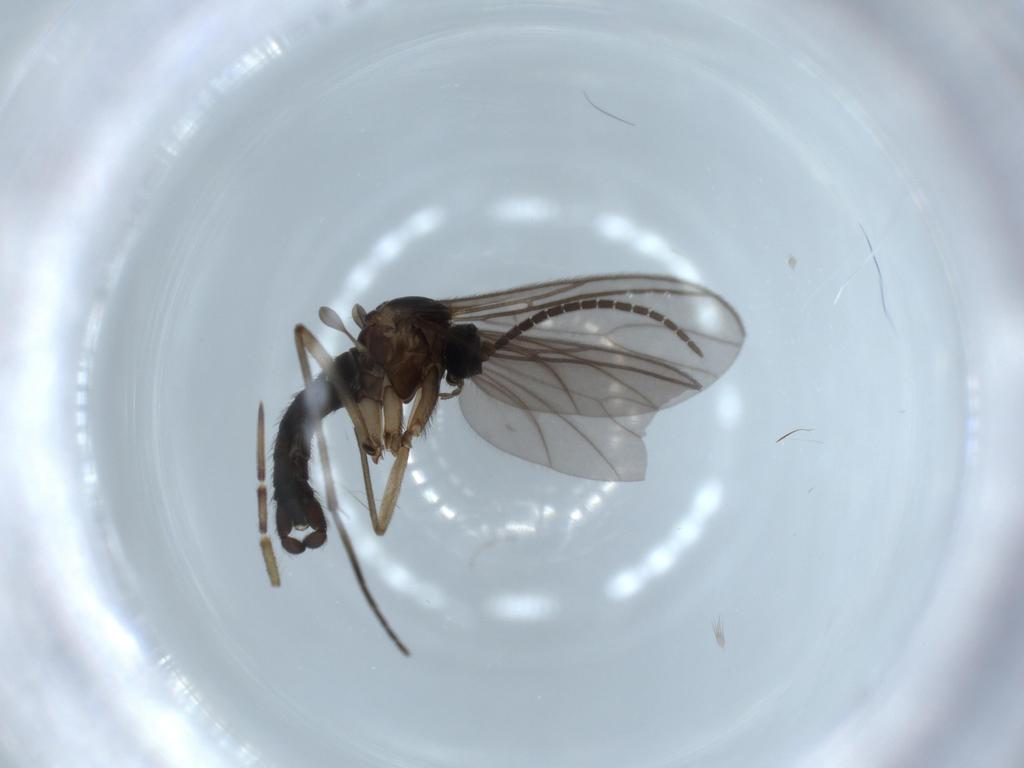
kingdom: Animalia
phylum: Arthropoda
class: Insecta
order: Diptera
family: Sciaridae
